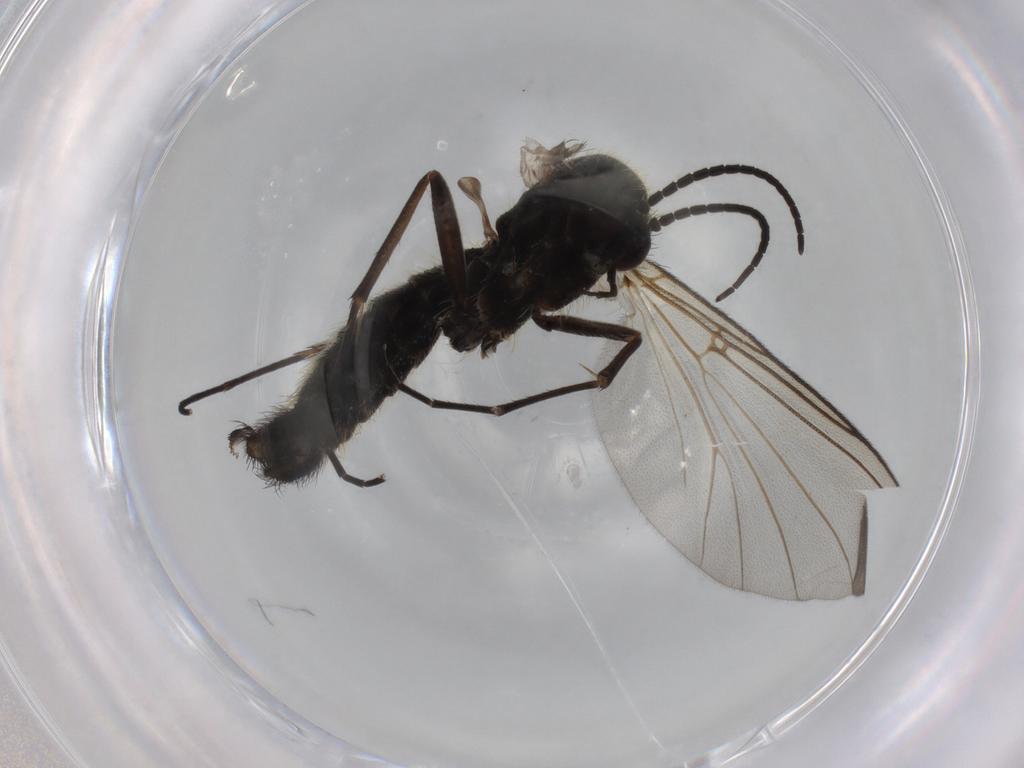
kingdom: Animalia
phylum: Arthropoda
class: Insecta
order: Diptera
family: Mycetophilidae
